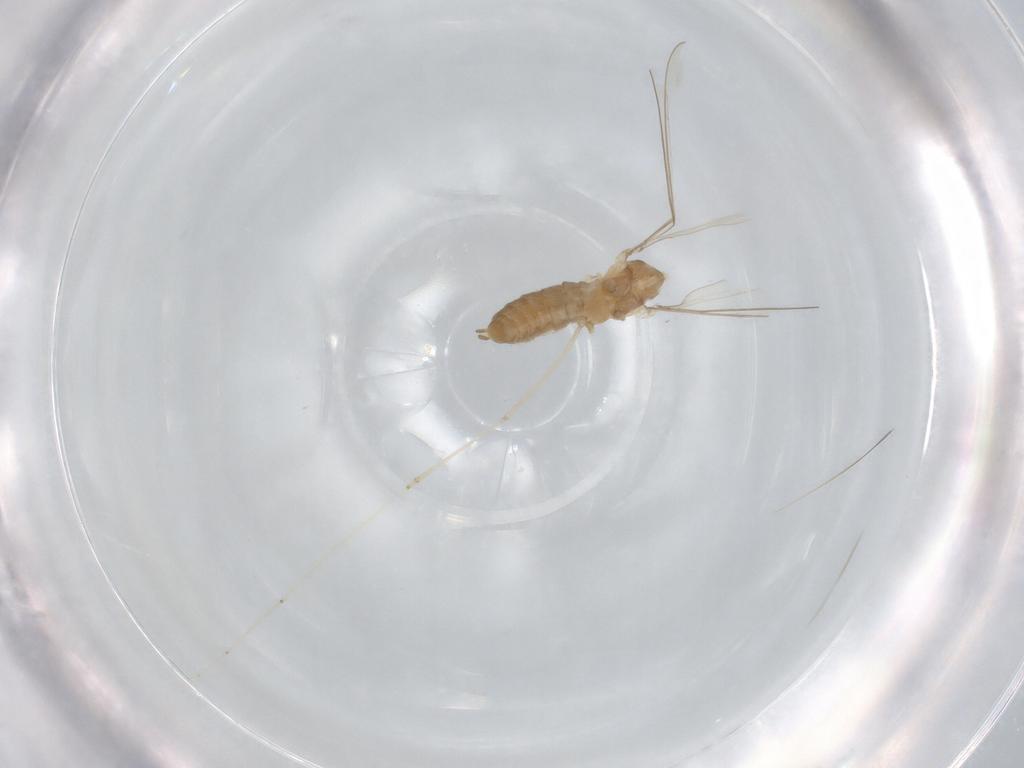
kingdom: Animalia
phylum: Arthropoda
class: Insecta
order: Diptera
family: Cecidomyiidae
